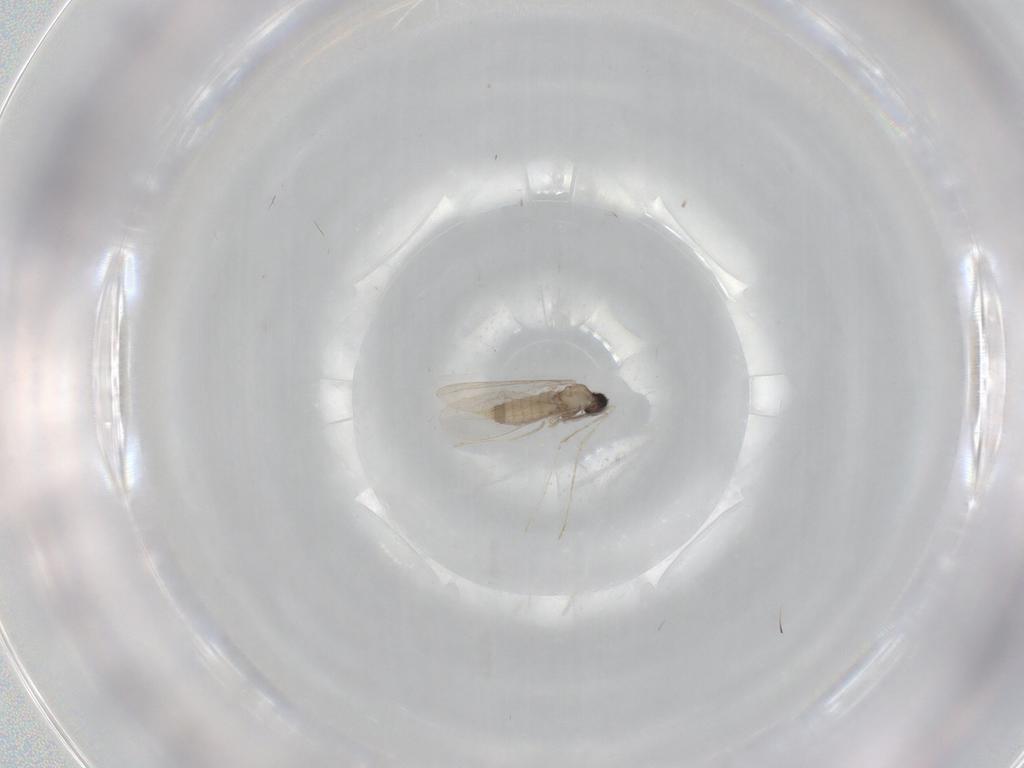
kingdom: Animalia
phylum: Arthropoda
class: Insecta
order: Diptera
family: Cecidomyiidae
